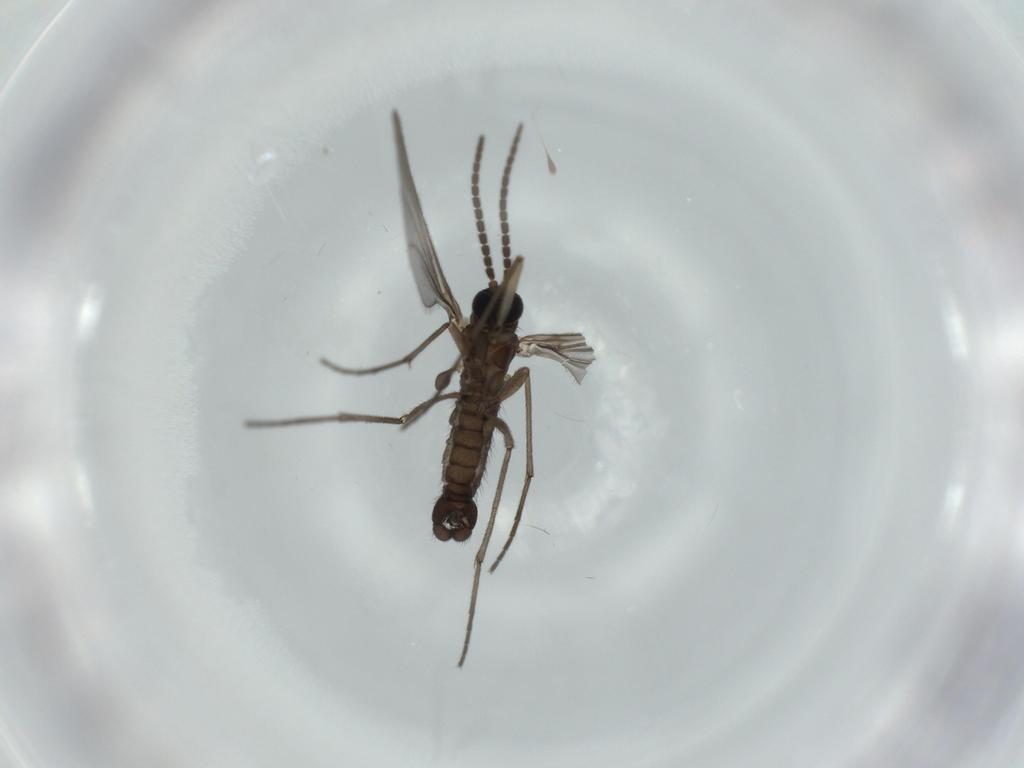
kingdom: Animalia
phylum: Arthropoda
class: Insecta
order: Diptera
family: Sciaridae
